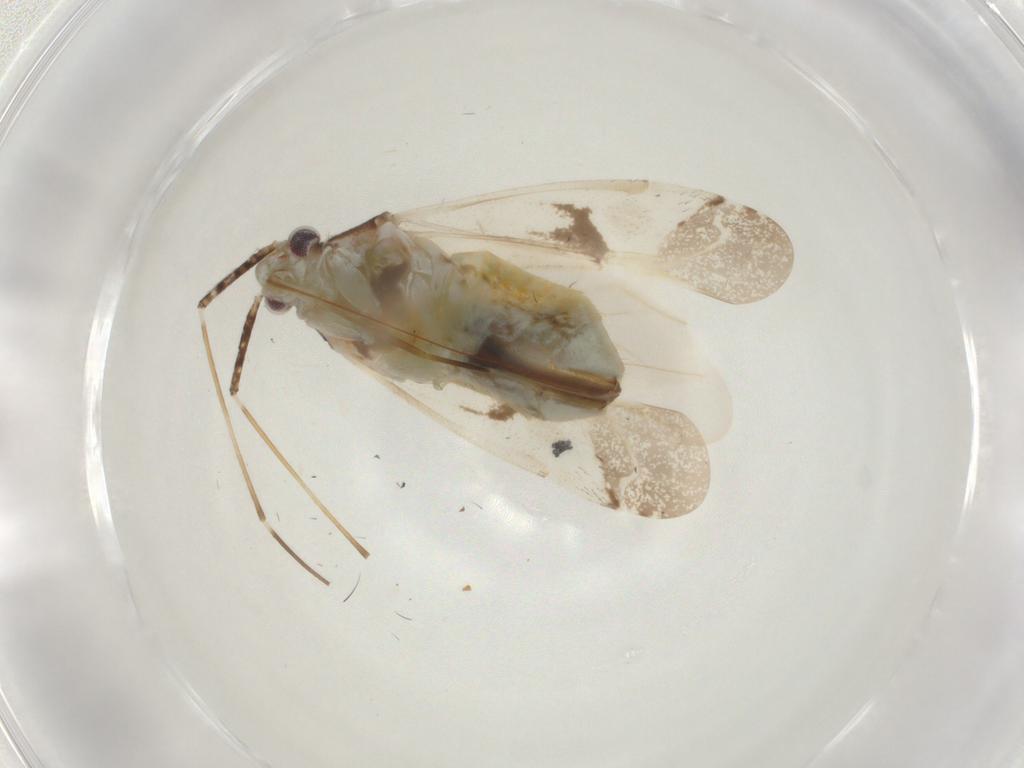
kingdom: Animalia
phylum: Arthropoda
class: Insecta
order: Hemiptera
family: Miridae
